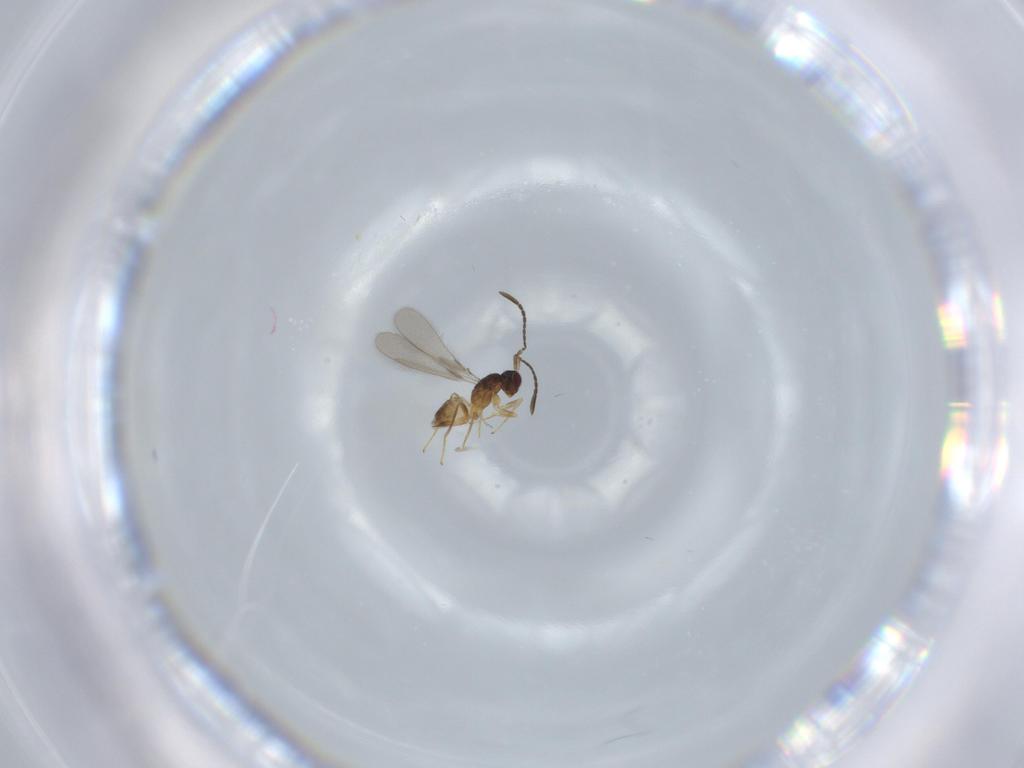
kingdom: Animalia
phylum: Arthropoda
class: Insecta
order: Hymenoptera
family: Mymaridae
